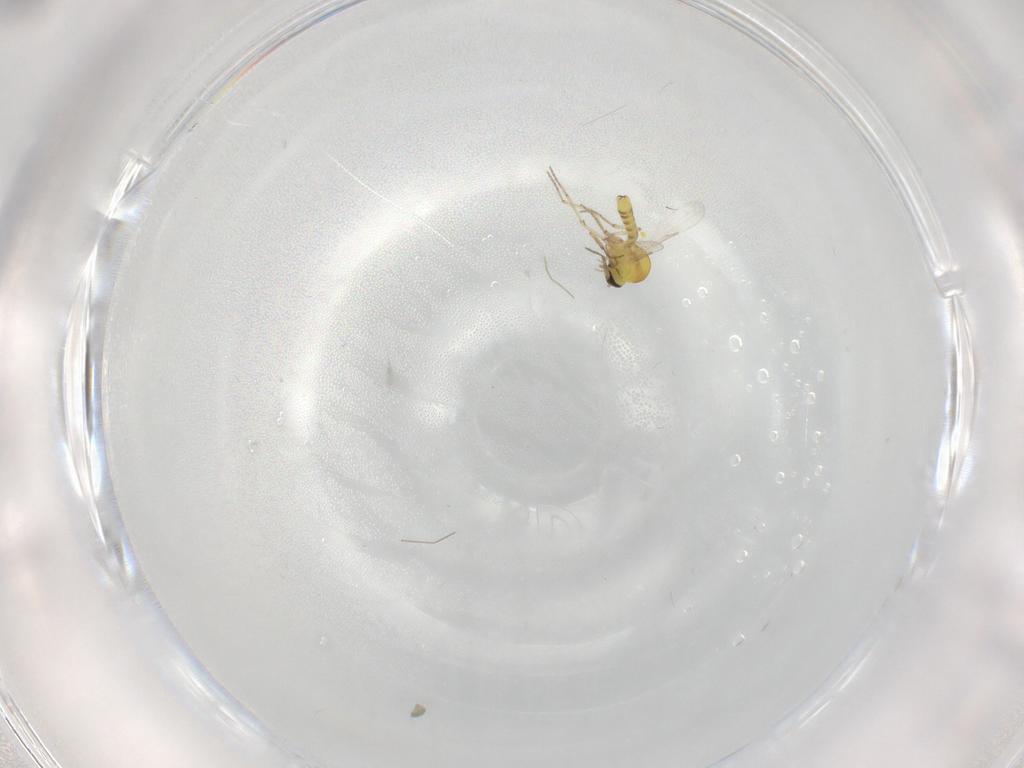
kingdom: Animalia
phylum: Arthropoda
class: Insecta
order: Diptera
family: Ceratopogonidae
